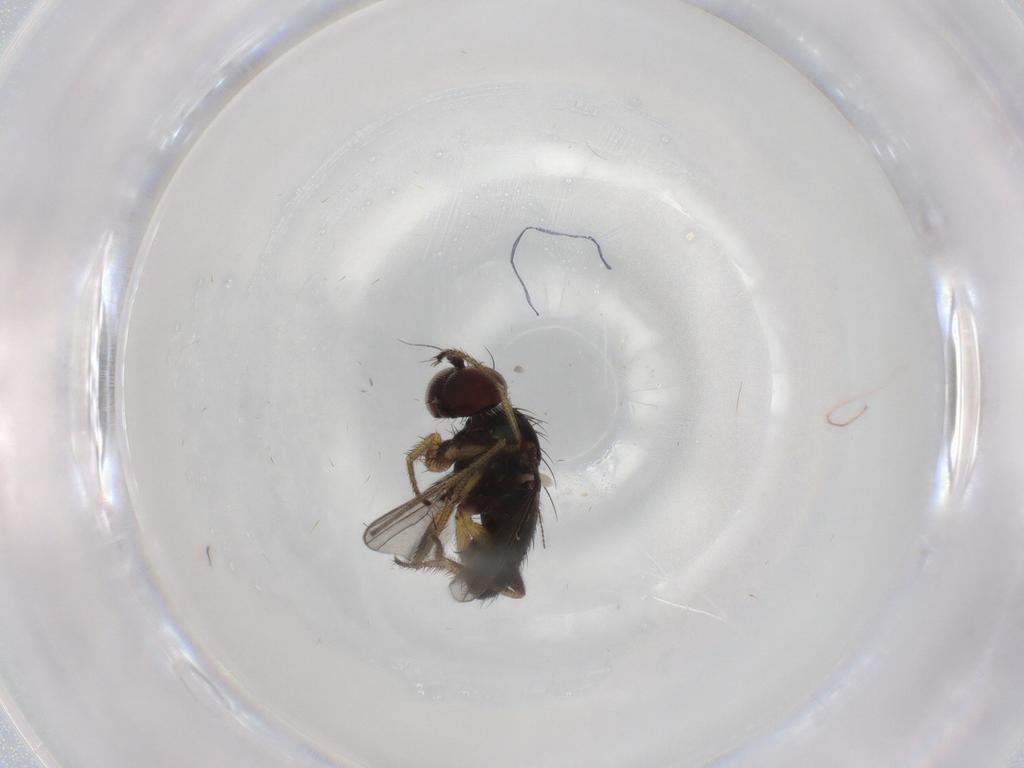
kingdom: Animalia
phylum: Arthropoda
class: Insecta
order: Diptera
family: Dolichopodidae
